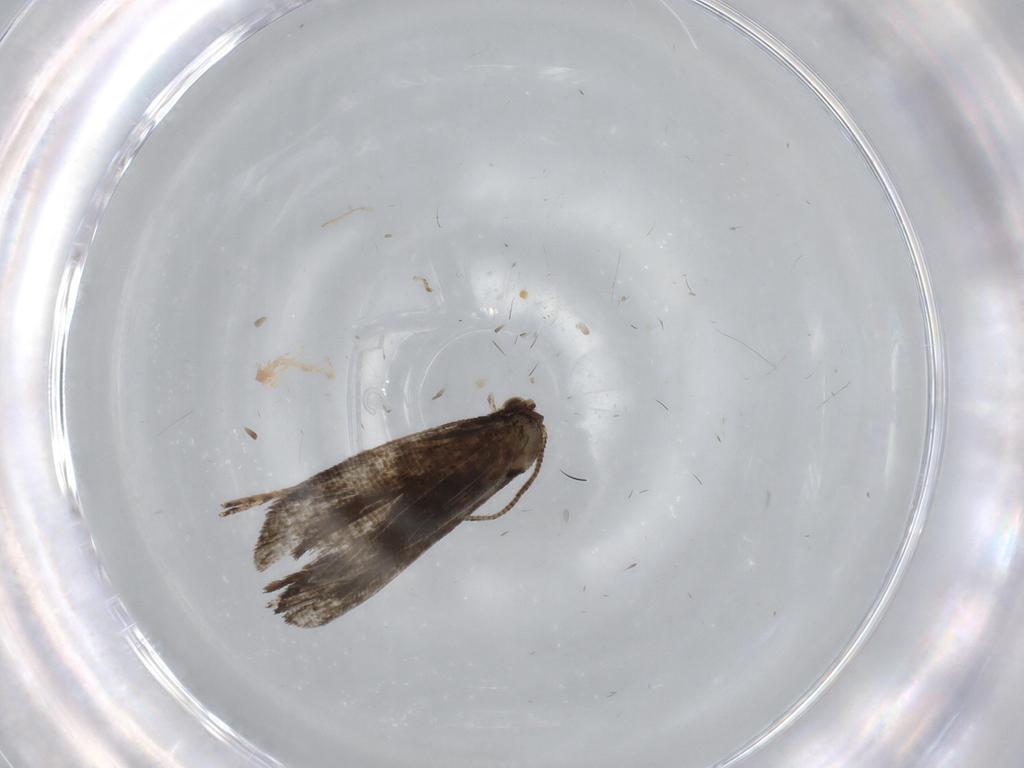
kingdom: Animalia
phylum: Arthropoda
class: Insecta
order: Lepidoptera
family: Tineidae
